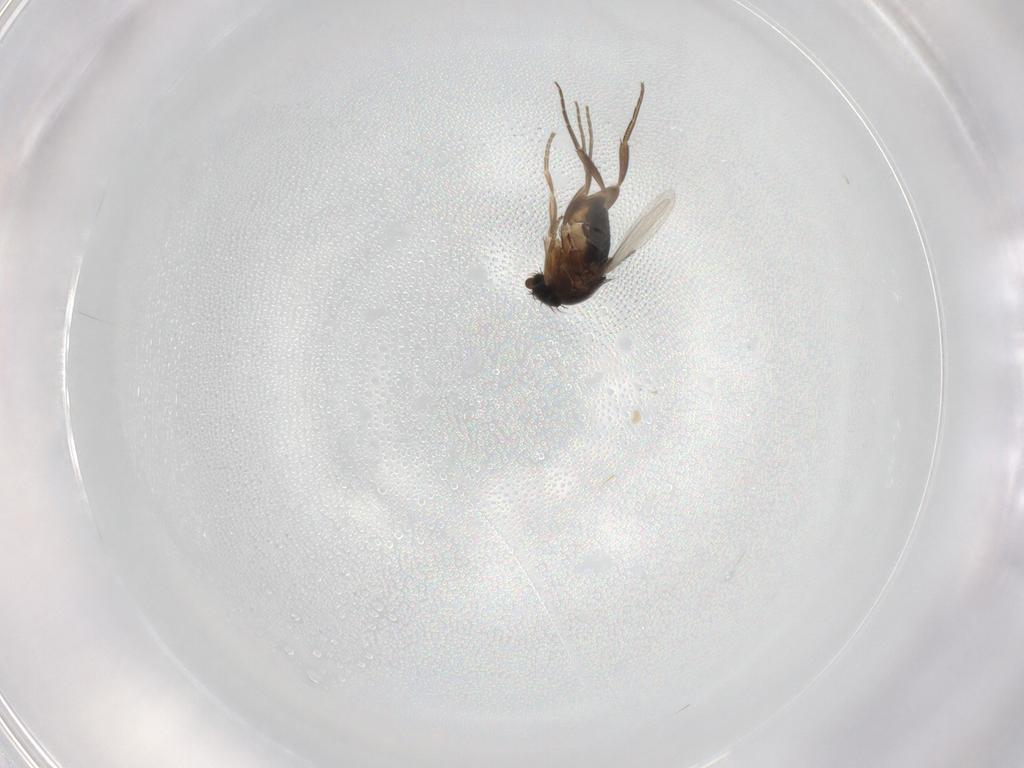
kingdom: Animalia
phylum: Arthropoda
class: Insecta
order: Diptera
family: Phoridae
